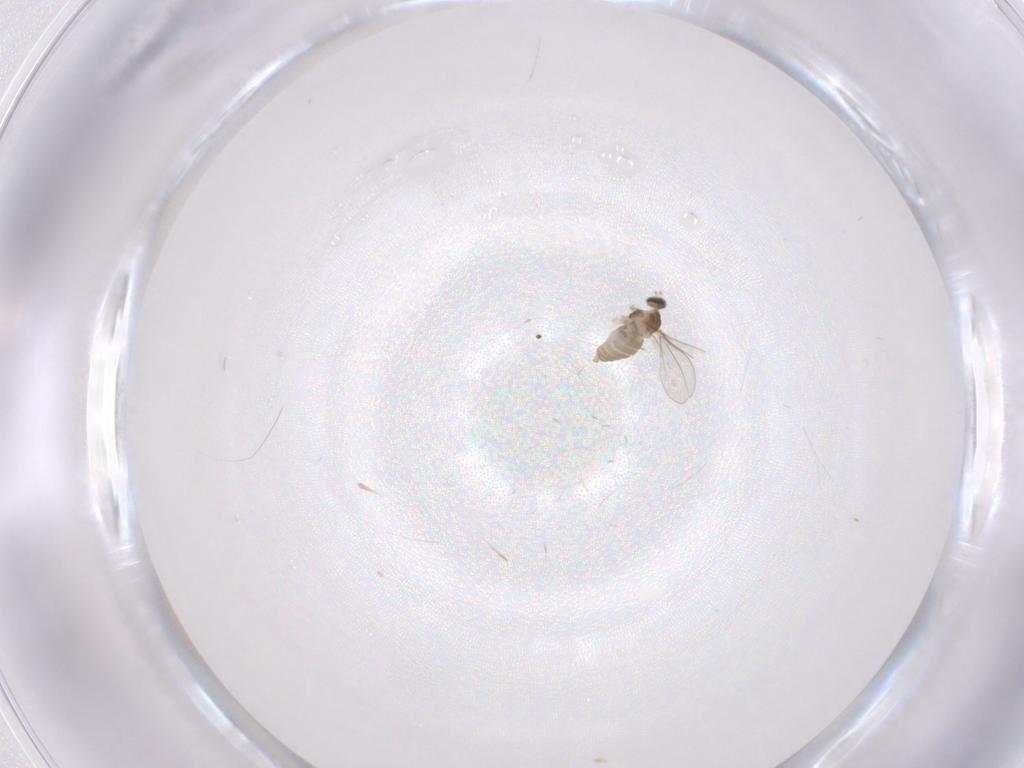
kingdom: Animalia
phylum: Arthropoda
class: Insecta
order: Diptera
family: Cecidomyiidae
